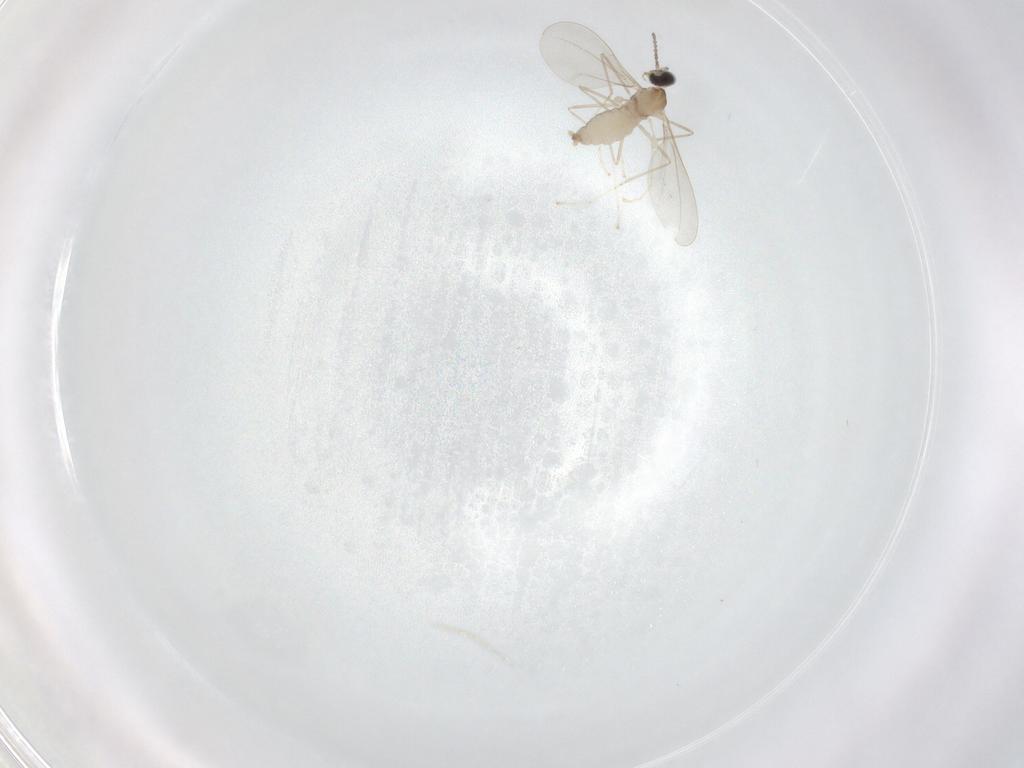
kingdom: Animalia
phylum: Arthropoda
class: Insecta
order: Diptera
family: Cecidomyiidae
